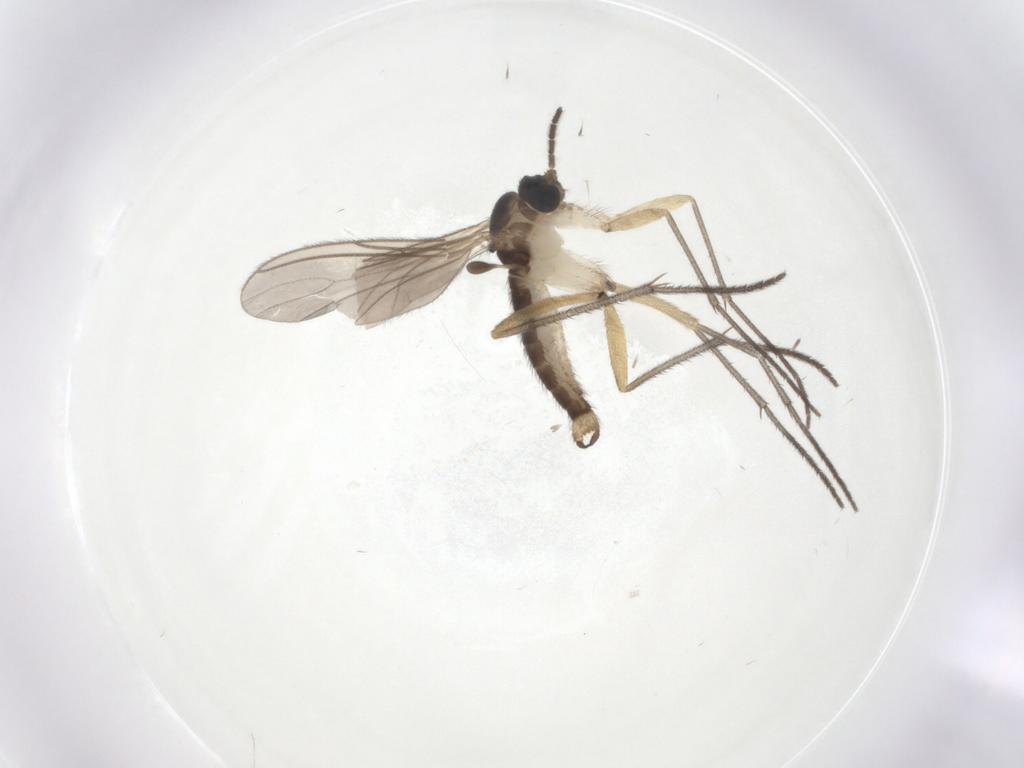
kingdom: Animalia
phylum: Arthropoda
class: Insecta
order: Diptera
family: Sciaridae
